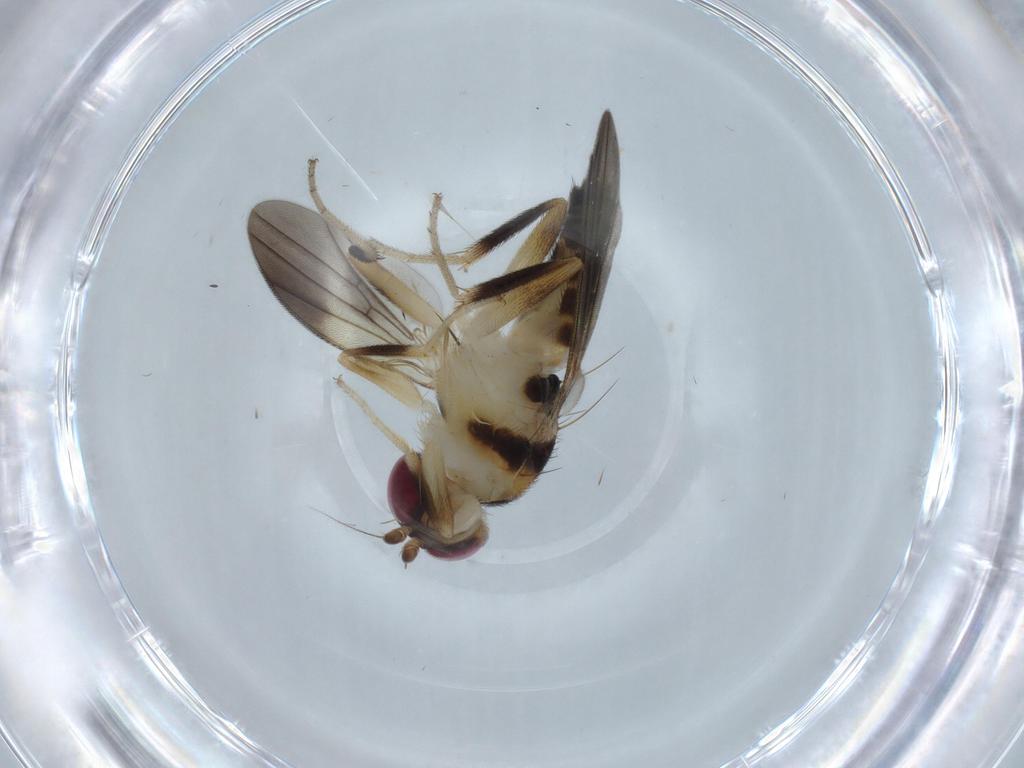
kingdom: Animalia
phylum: Arthropoda
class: Insecta
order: Diptera
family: Clusiidae
